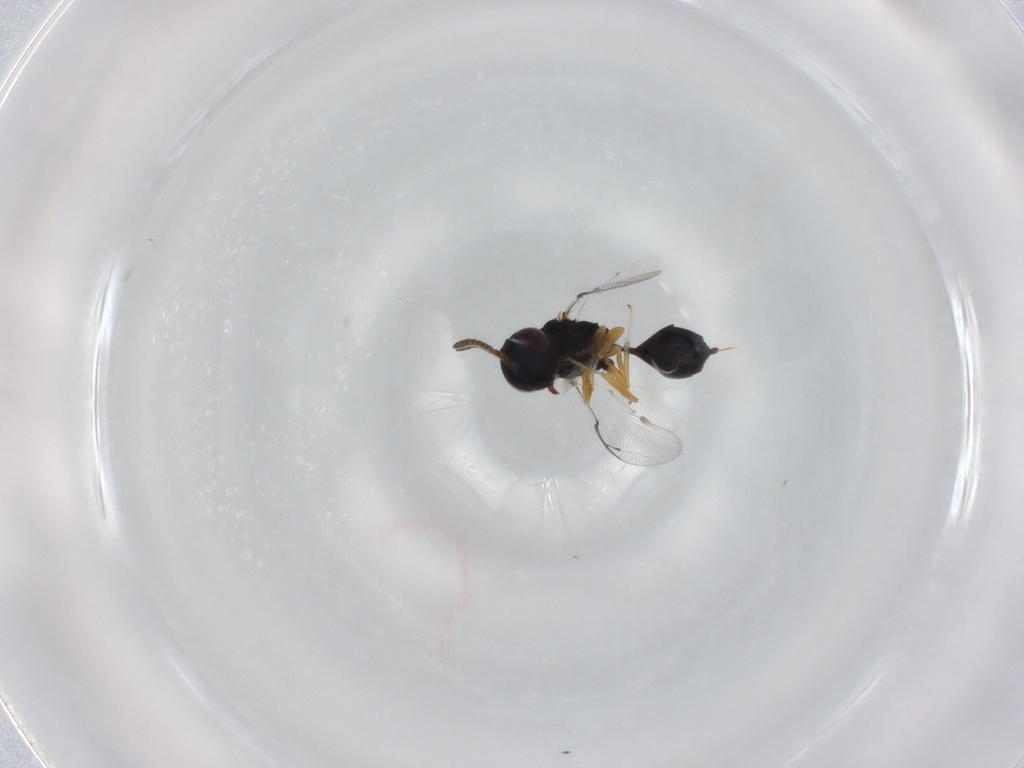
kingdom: Animalia
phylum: Arthropoda
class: Insecta
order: Hymenoptera
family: Pteromalidae
